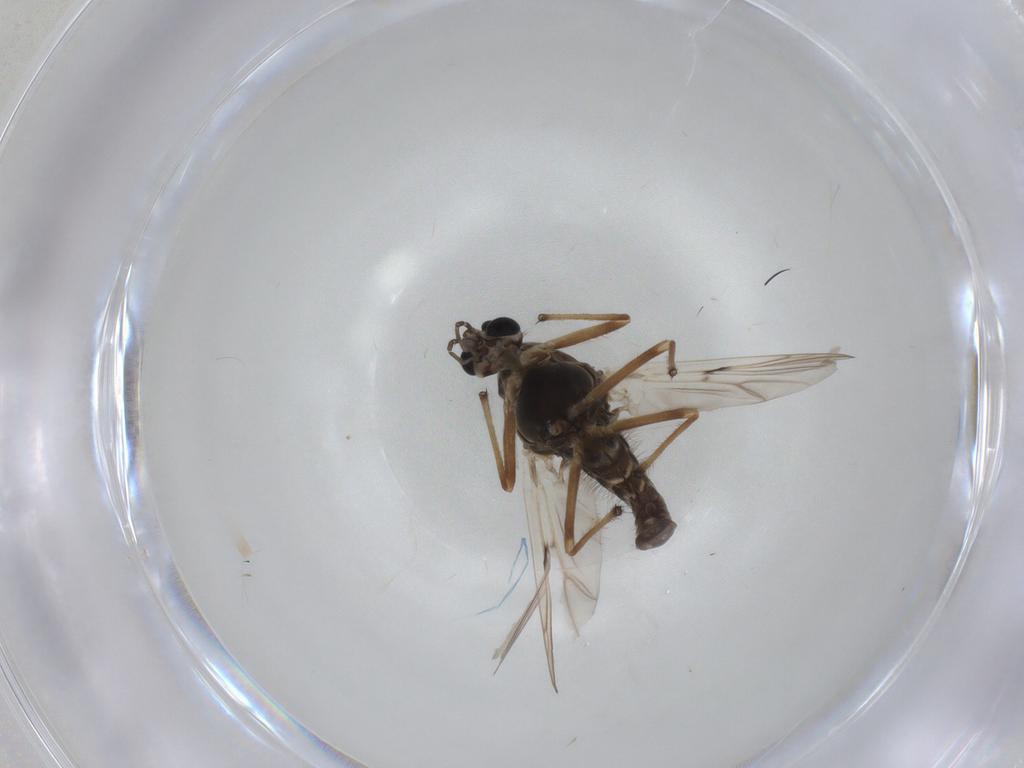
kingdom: Animalia
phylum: Arthropoda
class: Insecta
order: Diptera
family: Chironomidae
